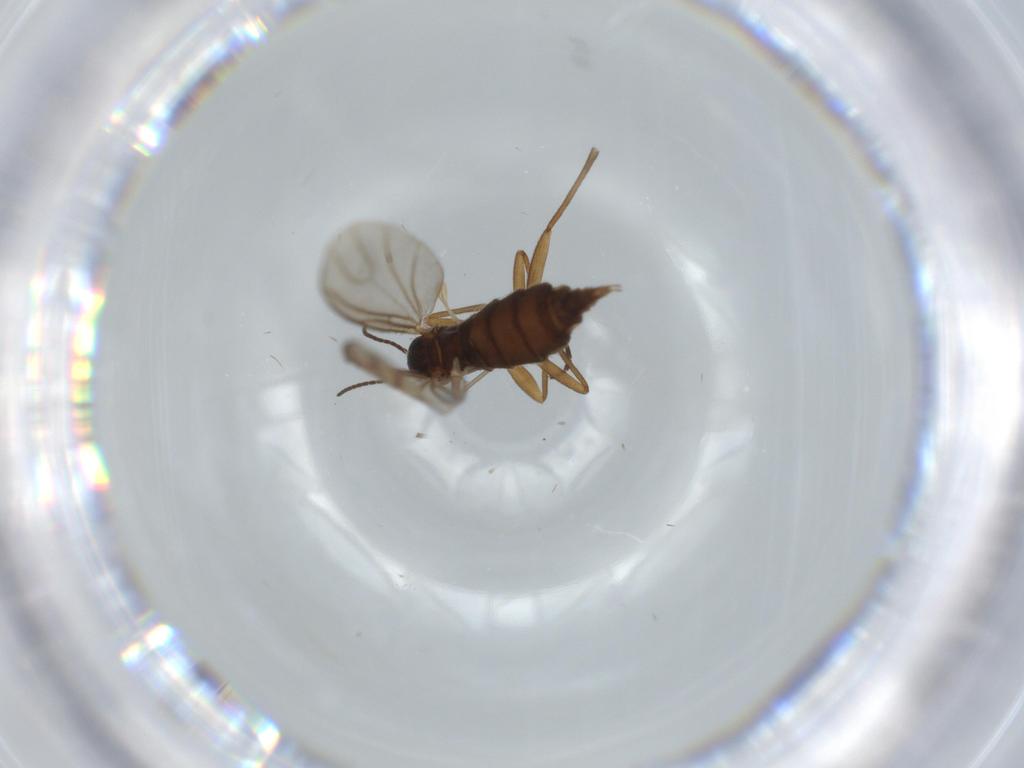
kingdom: Animalia
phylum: Arthropoda
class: Insecta
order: Diptera
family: Sciaridae
